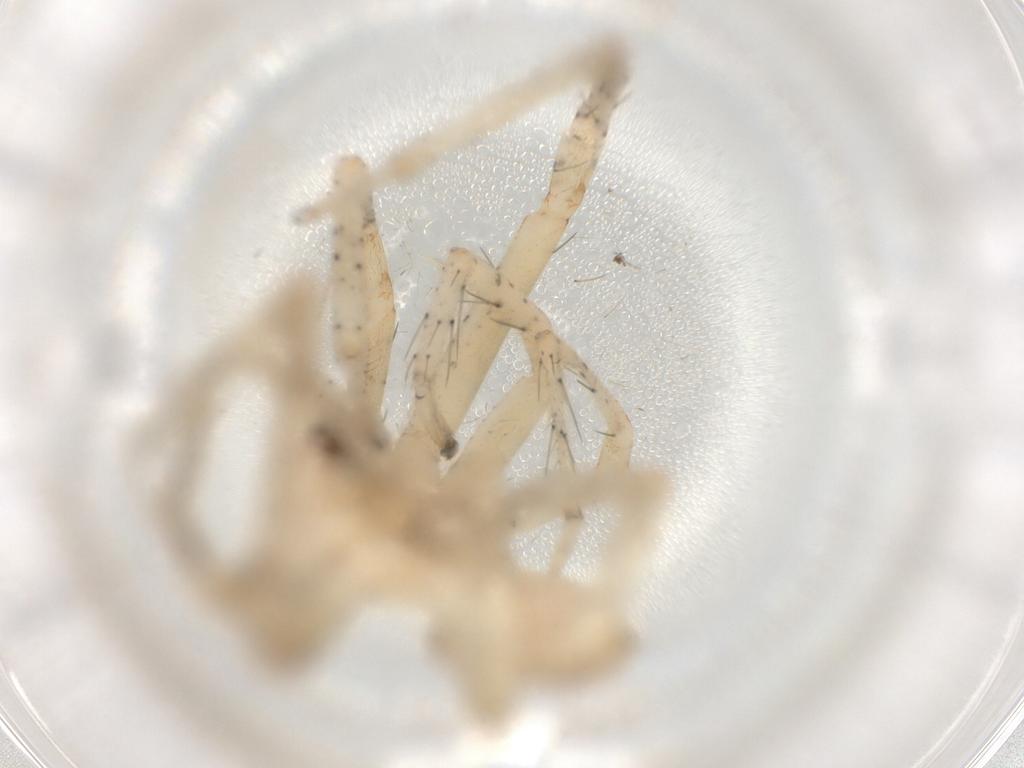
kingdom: Animalia
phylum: Arthropoda
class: Arachnida
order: Araneae
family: Sparassidae
